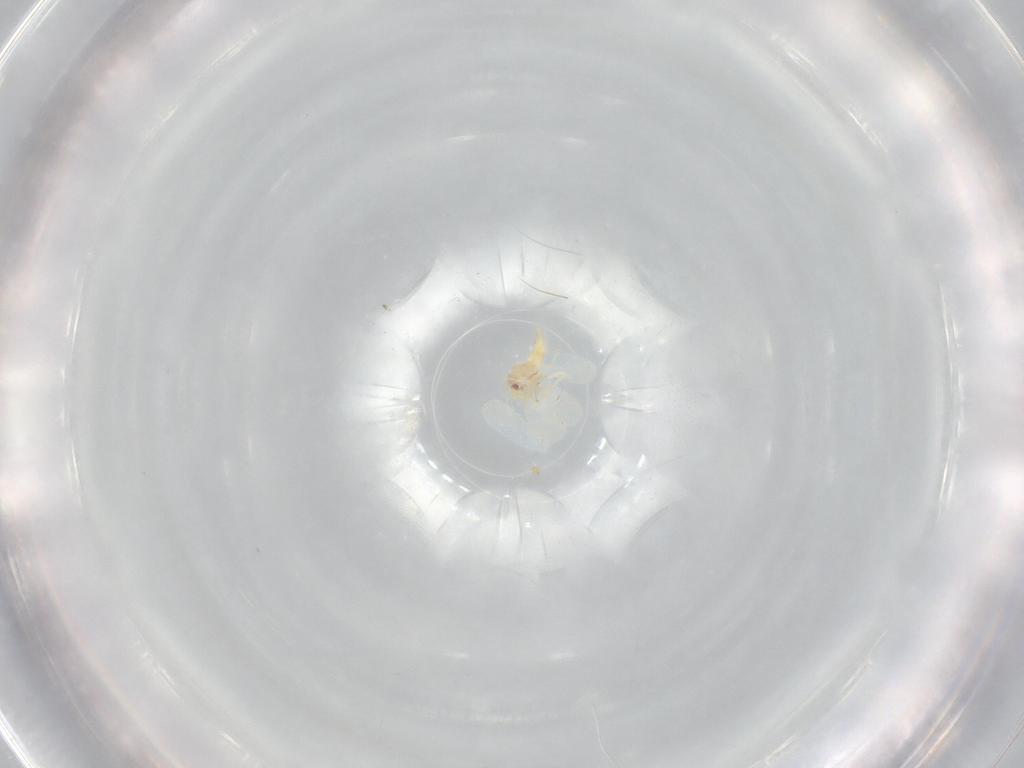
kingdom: Animalia
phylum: Arthropoda
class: Insecta
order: Hemiptera
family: Aleyrodidae
